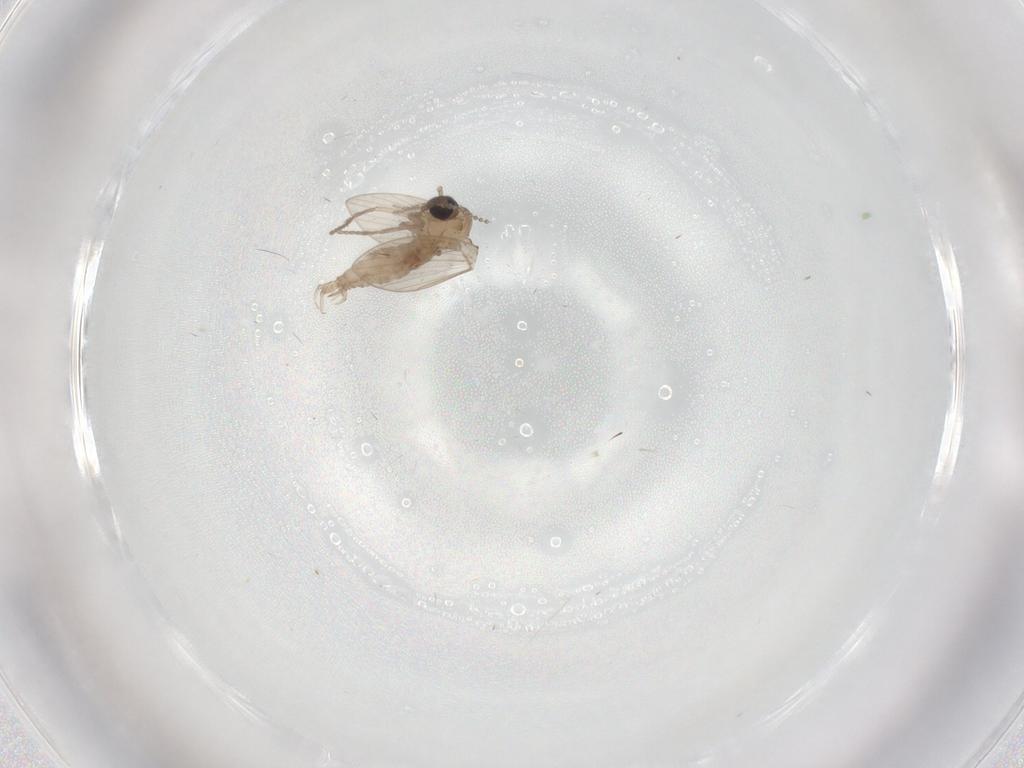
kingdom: Animalia
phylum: Arthropoda
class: Insecta
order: Diptera
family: Psychodidae
